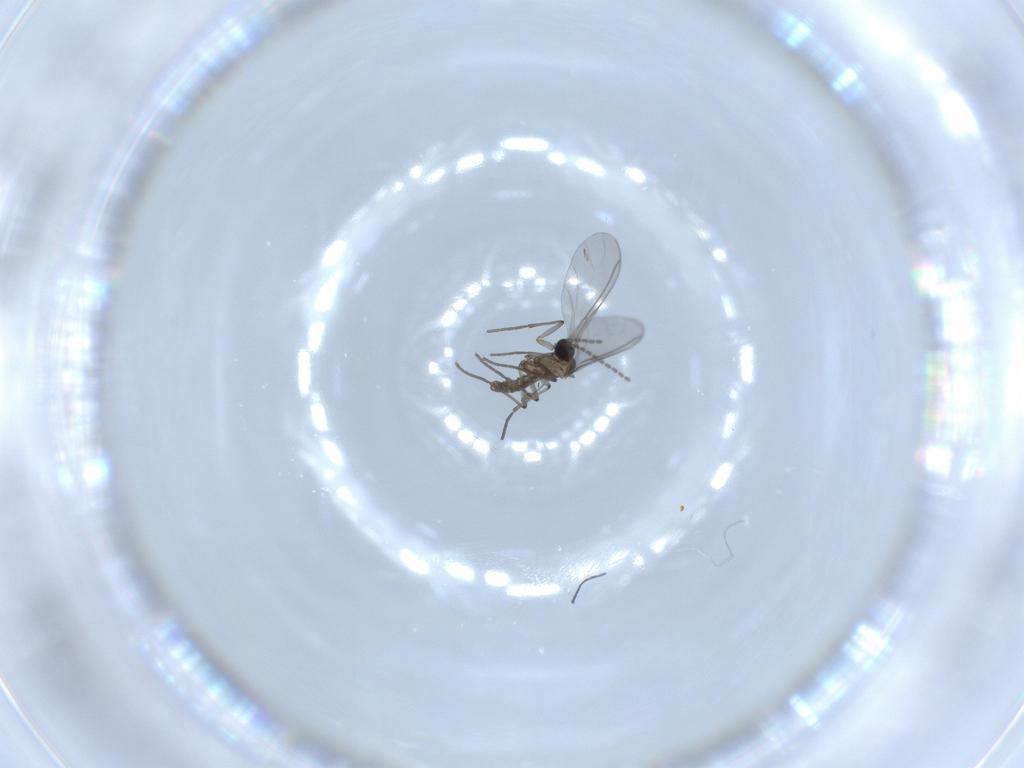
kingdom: Animalia
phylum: Arthropoda
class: Insecta
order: Diptera
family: Sciaridae
